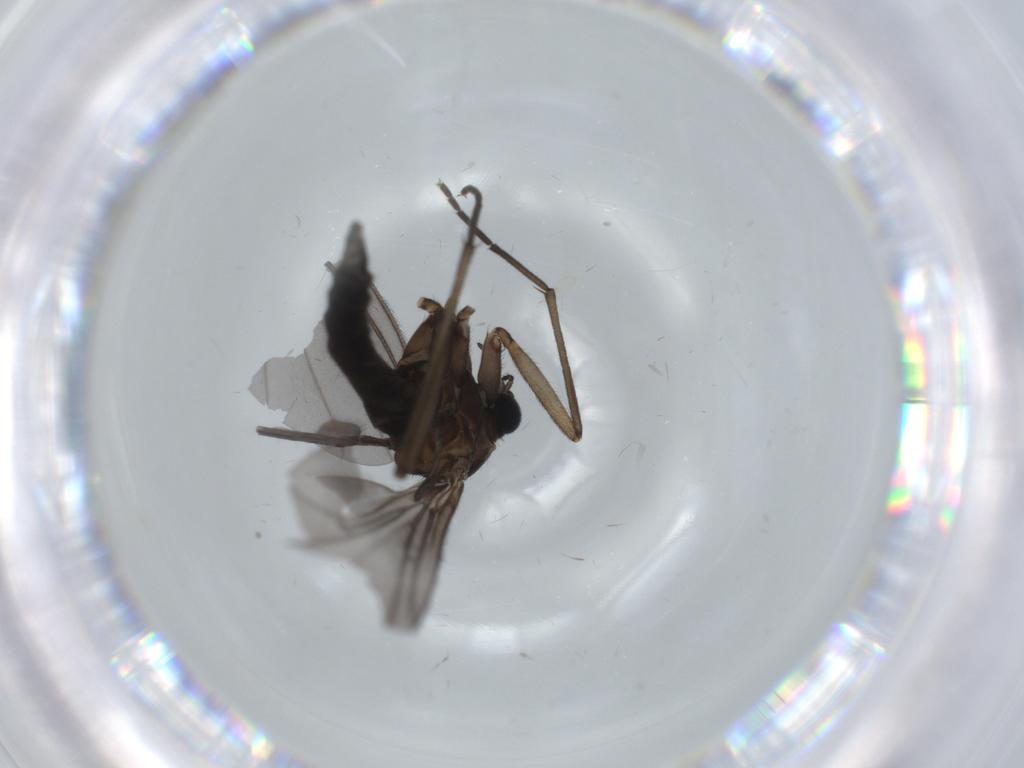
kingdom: Animalia
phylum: Arthropoda
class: Insecta
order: Diptera
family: Sciaridae
